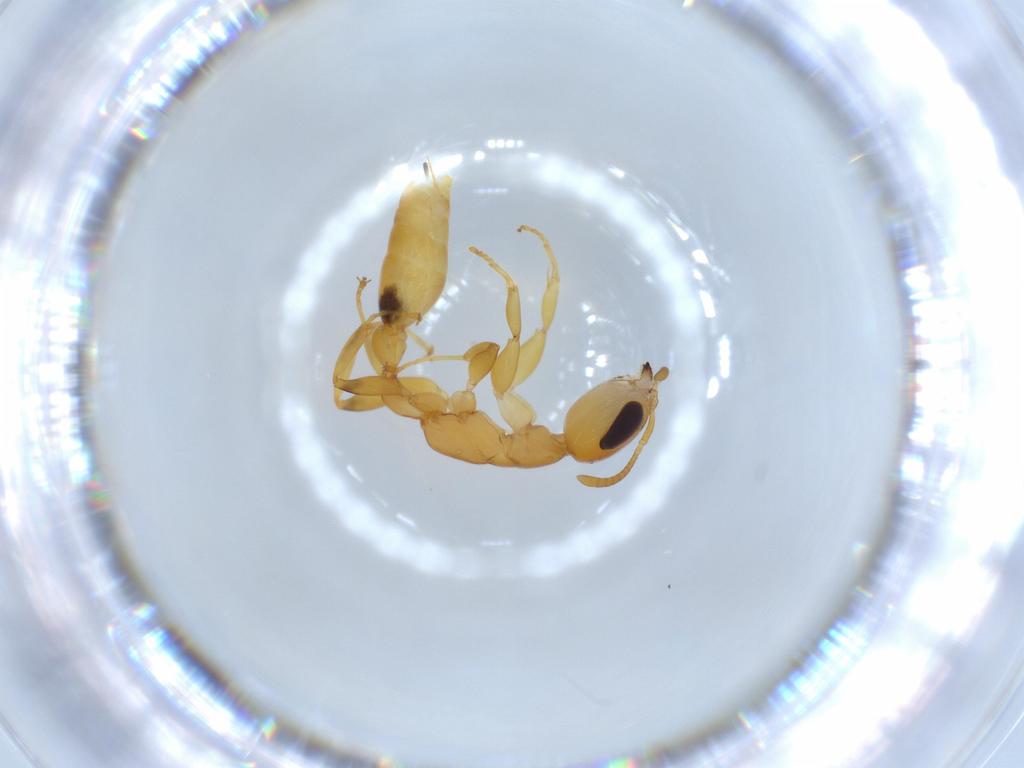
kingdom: Animalia
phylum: Arthropoda
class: Insecta
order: Hymenoptera
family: Formicidae
